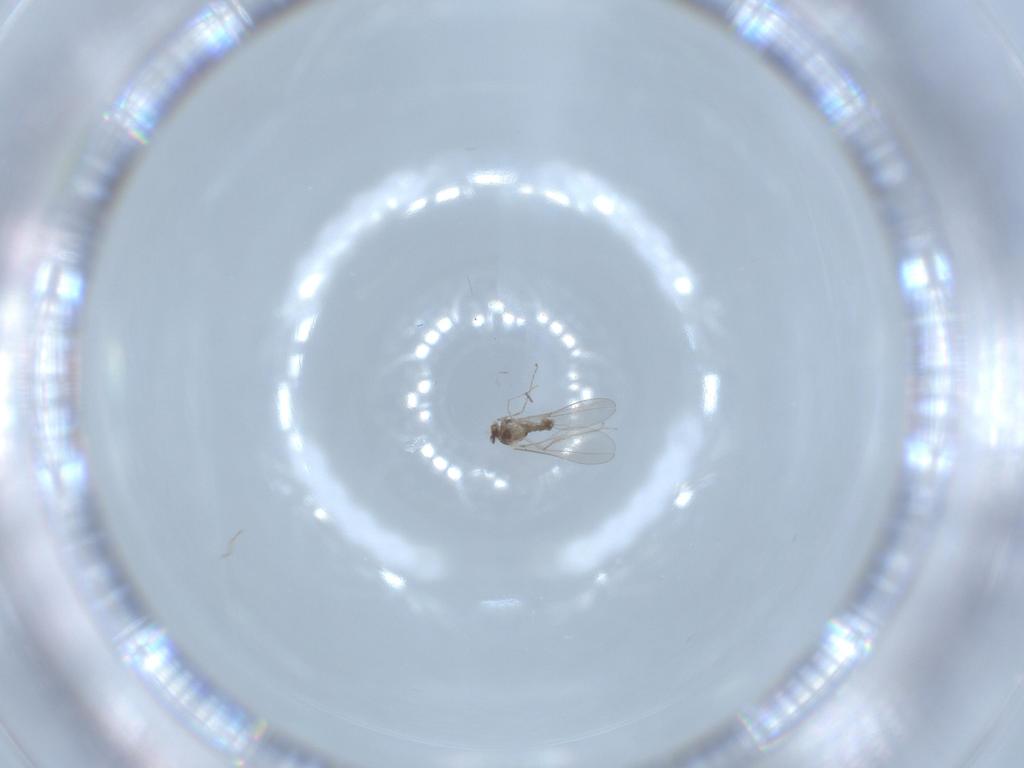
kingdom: Animalia
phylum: Arthropoda
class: Insecta
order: Diptera
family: Cecidomyiidae
